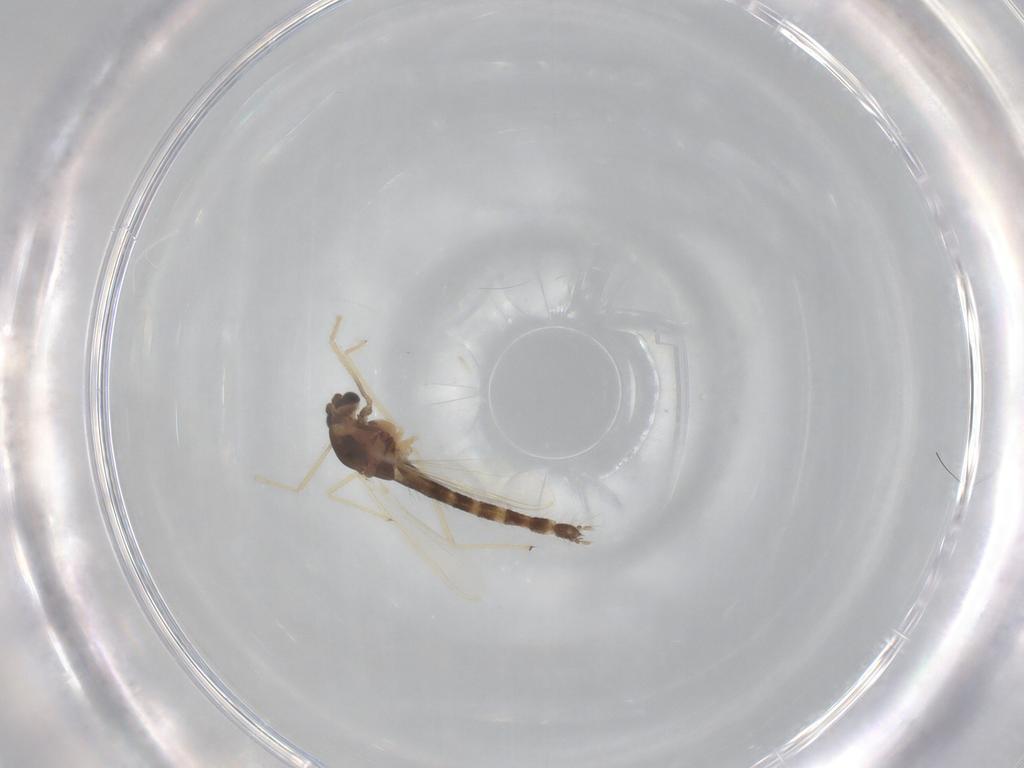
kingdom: Animalia
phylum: Arthropoda
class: Insecta
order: Diptera
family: Chironomidae
